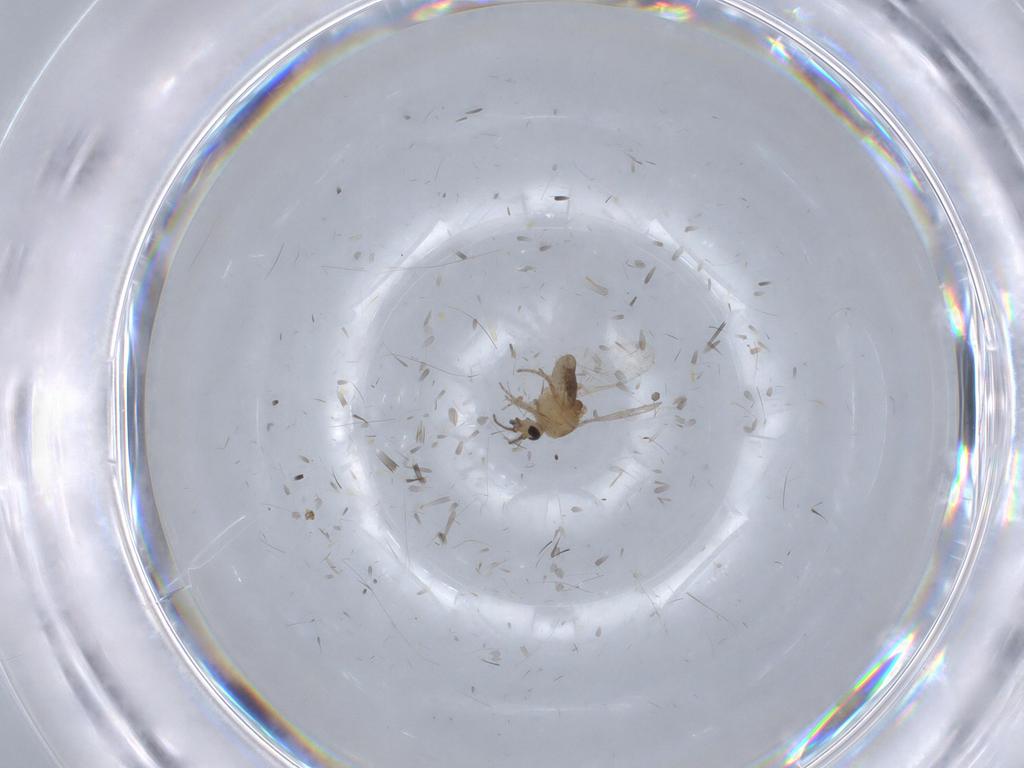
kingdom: Animalia
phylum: Arthropoda
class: Insecta
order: Diptera
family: Ceratopogonidae
